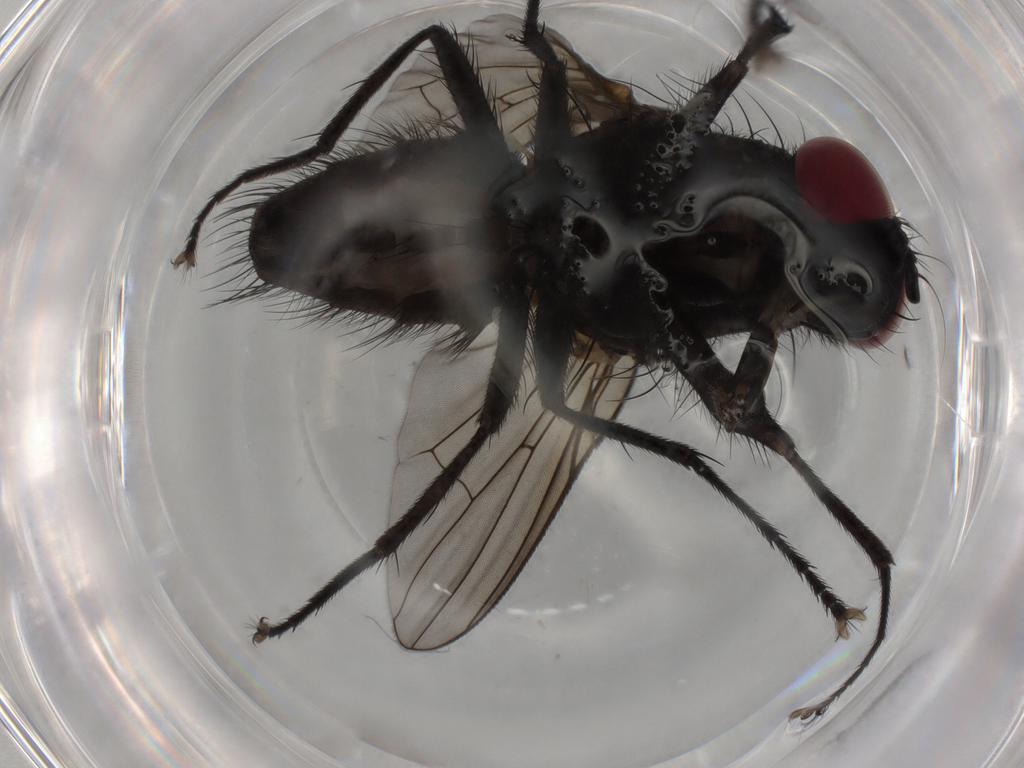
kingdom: Animalia
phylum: Arthropoda
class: Insecta
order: Diptera
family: Muscidae
